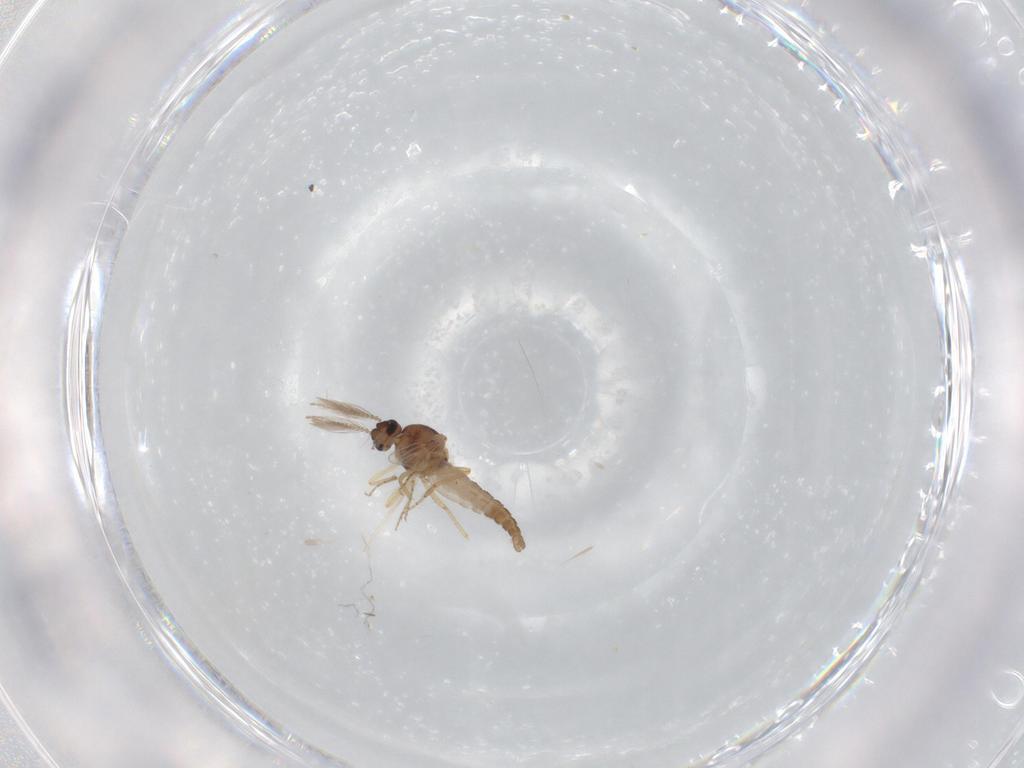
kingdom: Animalia
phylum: Arthropoda
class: Insecta
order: Diptera
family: Ceratopogonidae
